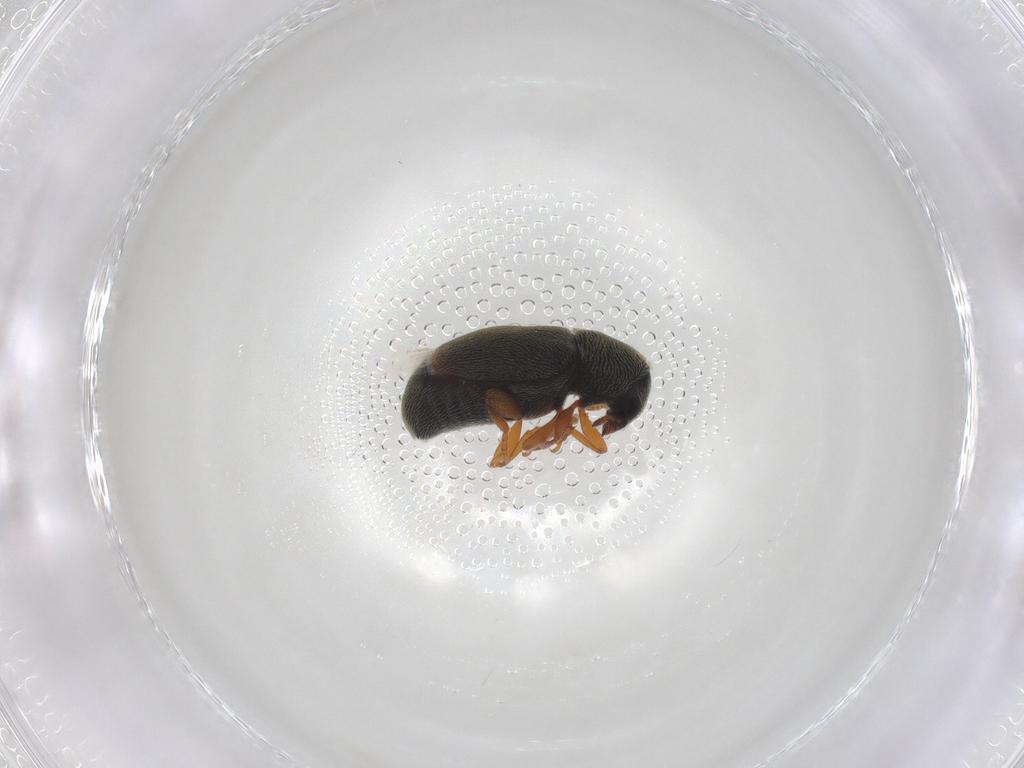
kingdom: Animalia
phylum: Arthropoda
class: Insecta
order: Coleoptera
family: Anthribidae
